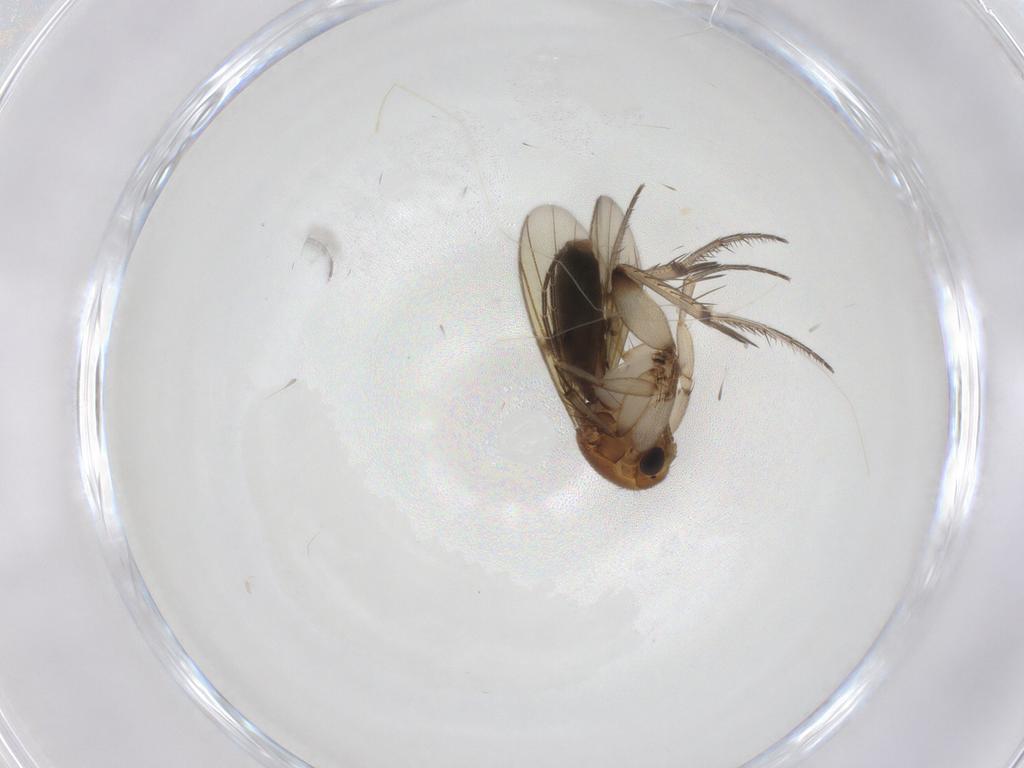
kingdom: Animalia
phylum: Arthropoda
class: Insecta
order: Diptera
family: Mycetophilidae
